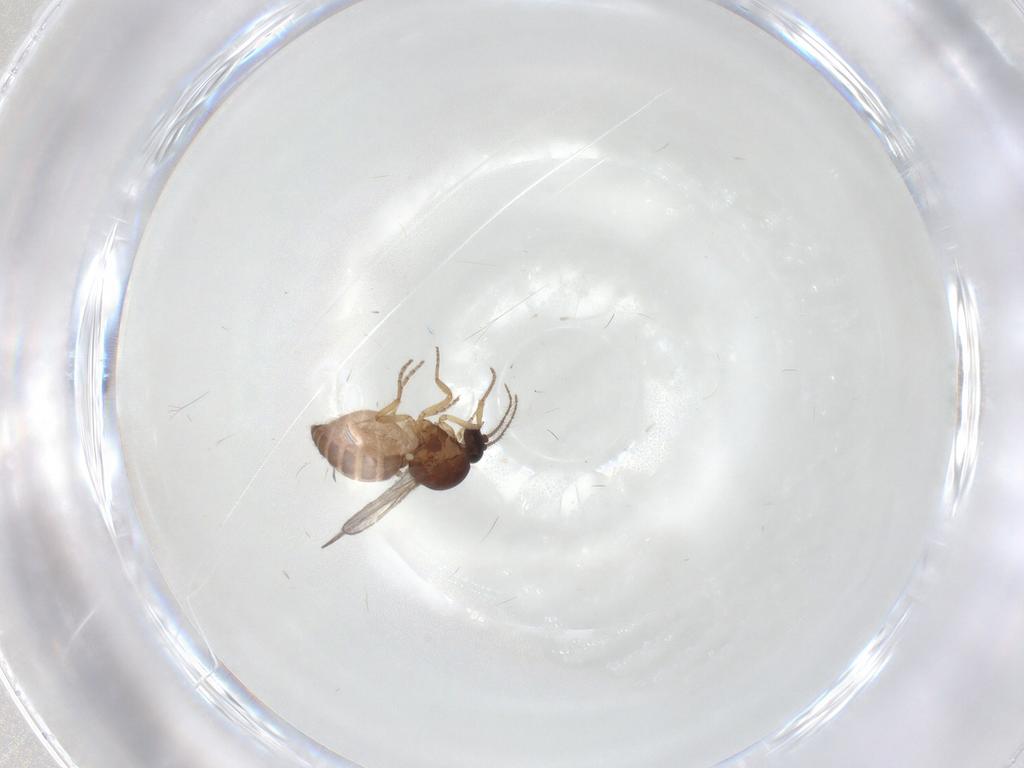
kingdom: Animalia
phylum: Arthropoda
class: Insecta
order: Diptera
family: Ceratopogonidae
